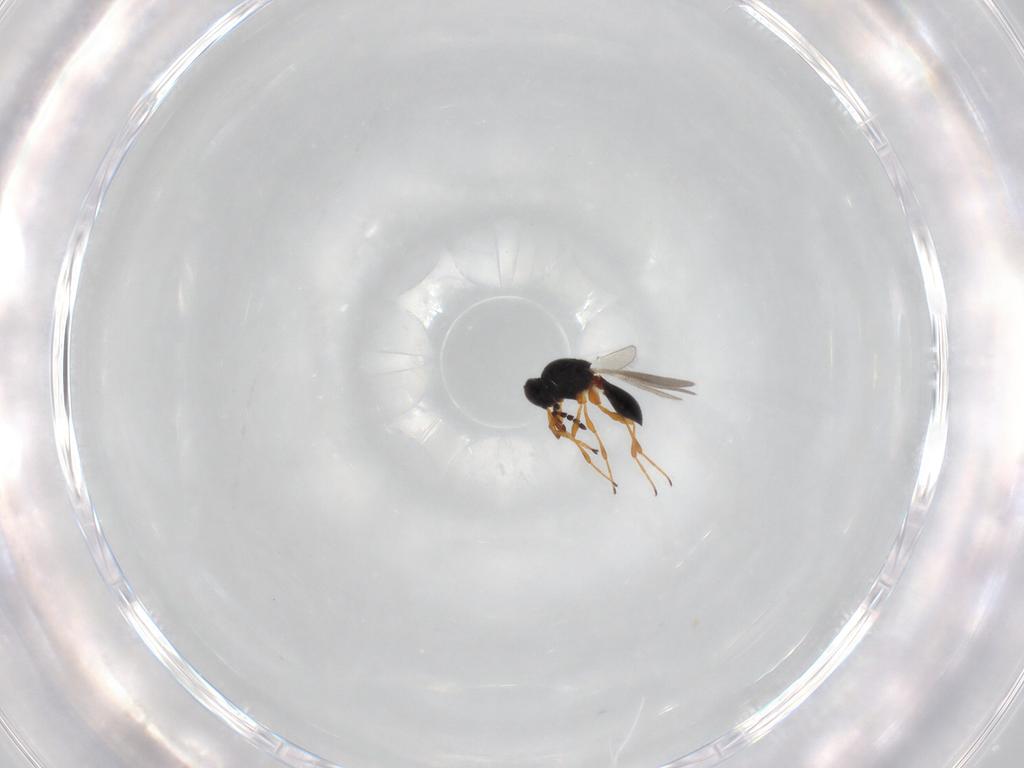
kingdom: Animalia
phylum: Arthropoda
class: Insecta
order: Hymenoptera
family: Platygastridae
